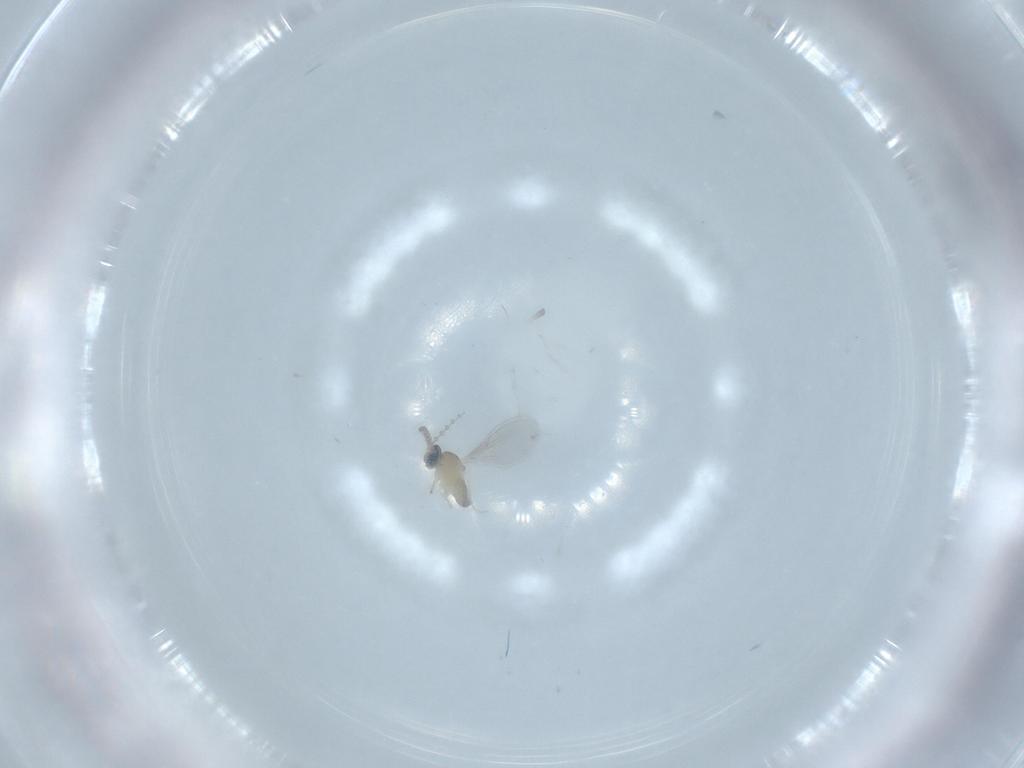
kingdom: Animalia
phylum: Arthropoda
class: Insecta
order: Diptera
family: Cecidomyiidae
